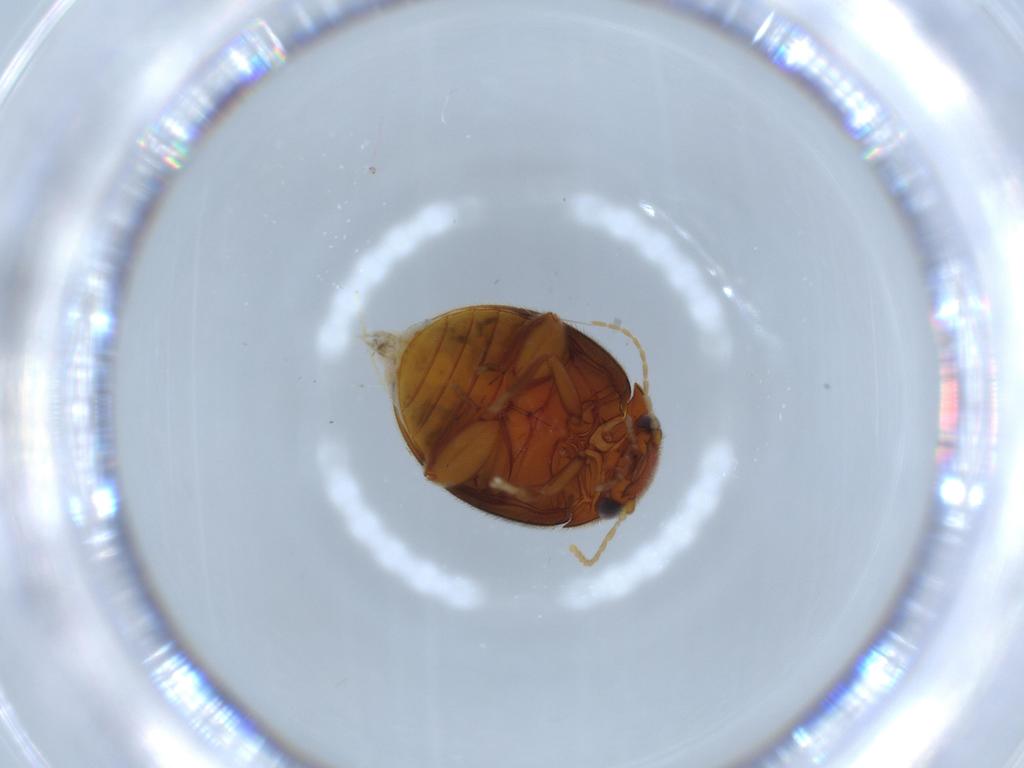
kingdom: Animalia
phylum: Arthropoda
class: Insecta
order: Coleoptera
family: Scirtidae
